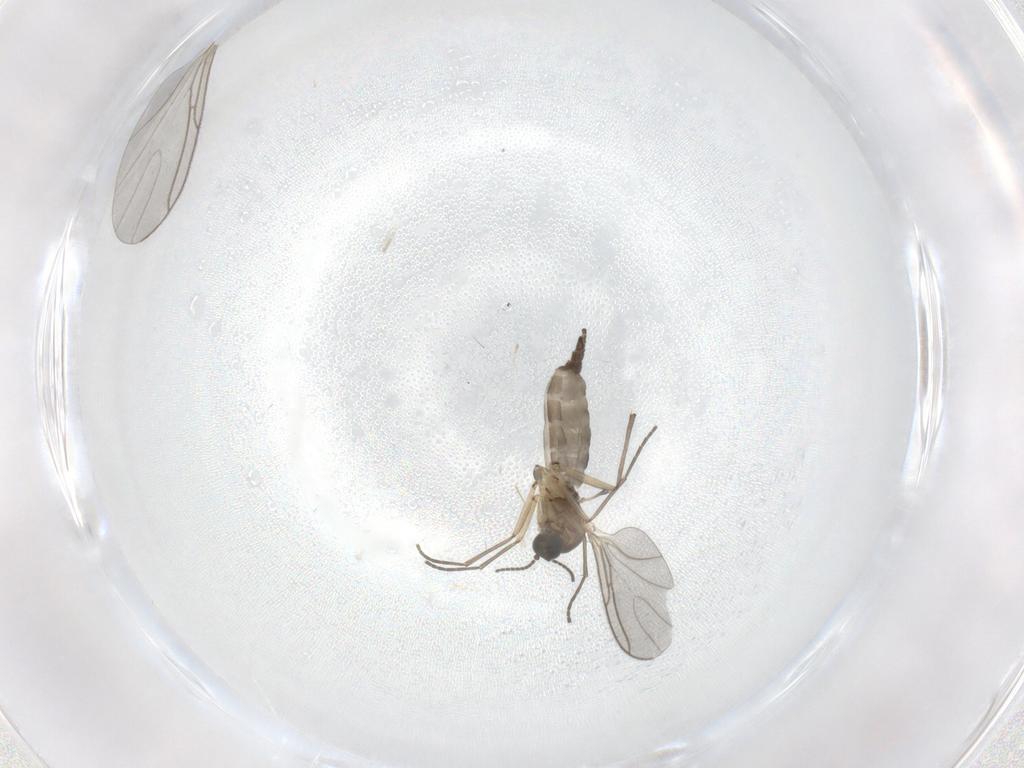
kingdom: Animalia
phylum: Arthropoda
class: Insecta
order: Diptera
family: Sciaridae
